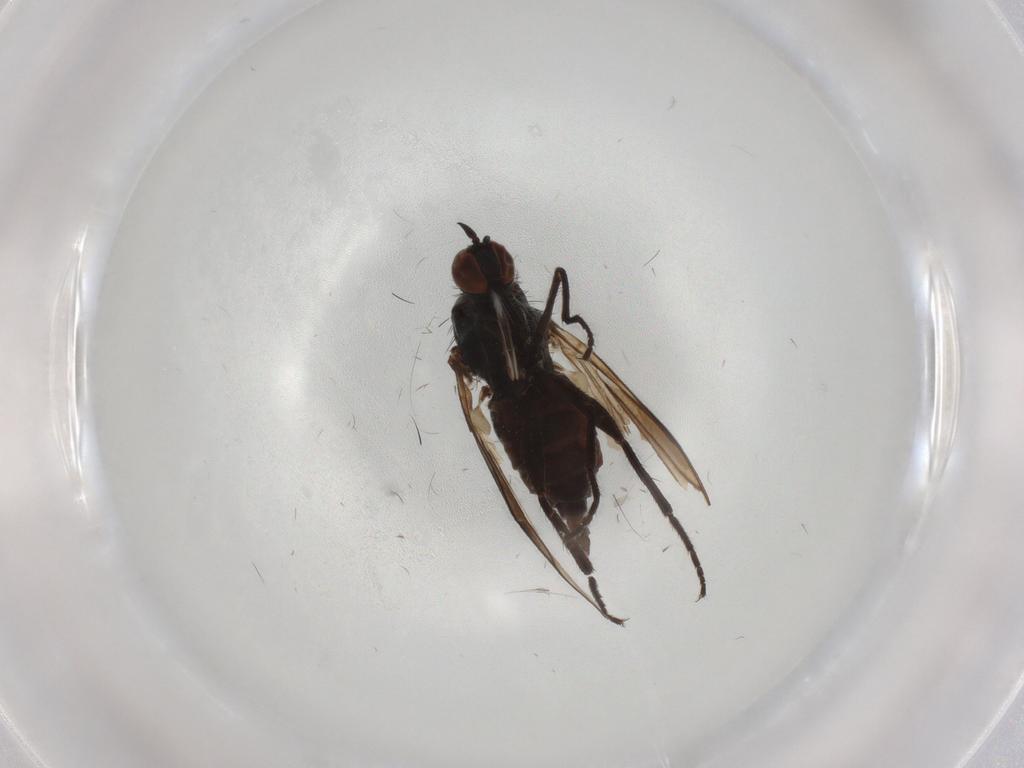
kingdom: Animalia
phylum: Arthropoda
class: Insecta
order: Diptera
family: Empididae
